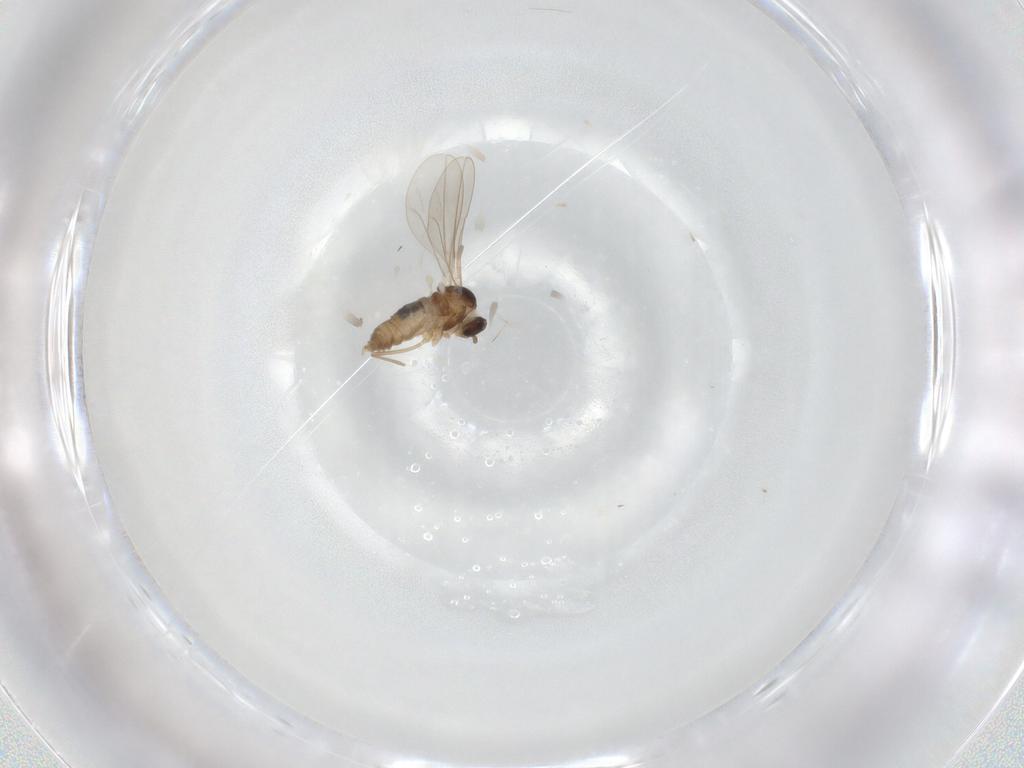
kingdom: Animalia
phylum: Arthropoda
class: Insecta
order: Diptera
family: Cecidomyiidae
